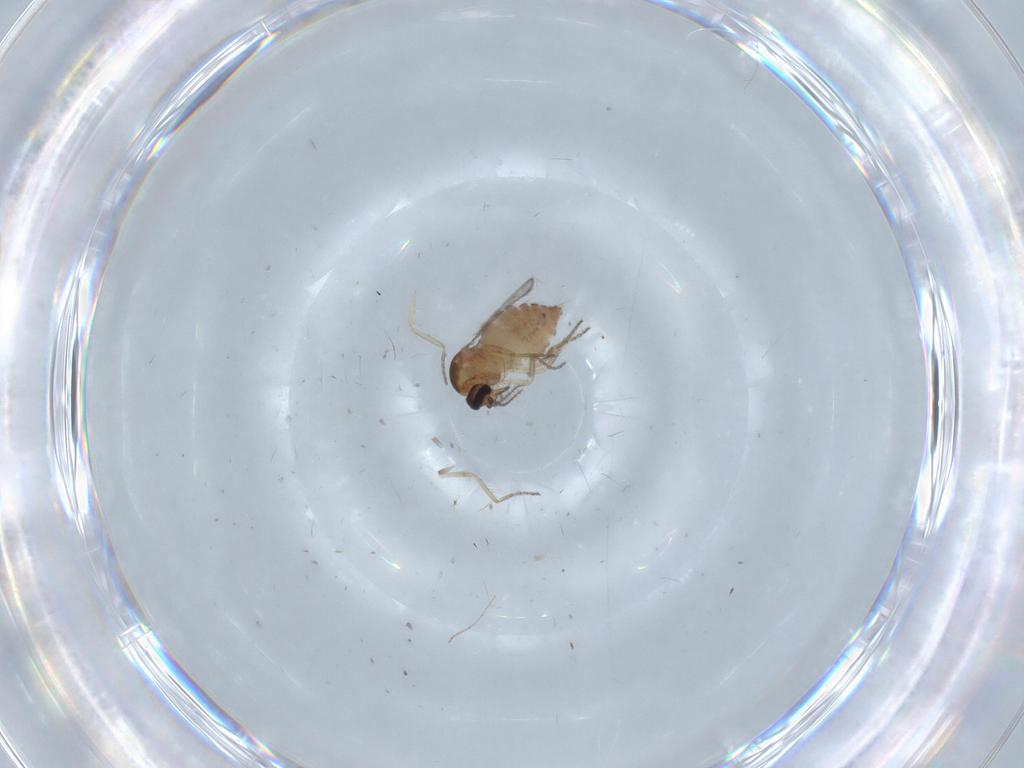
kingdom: Animalia
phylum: Arthropoda
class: Insecta
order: Diptera
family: Ceratopogonidae
